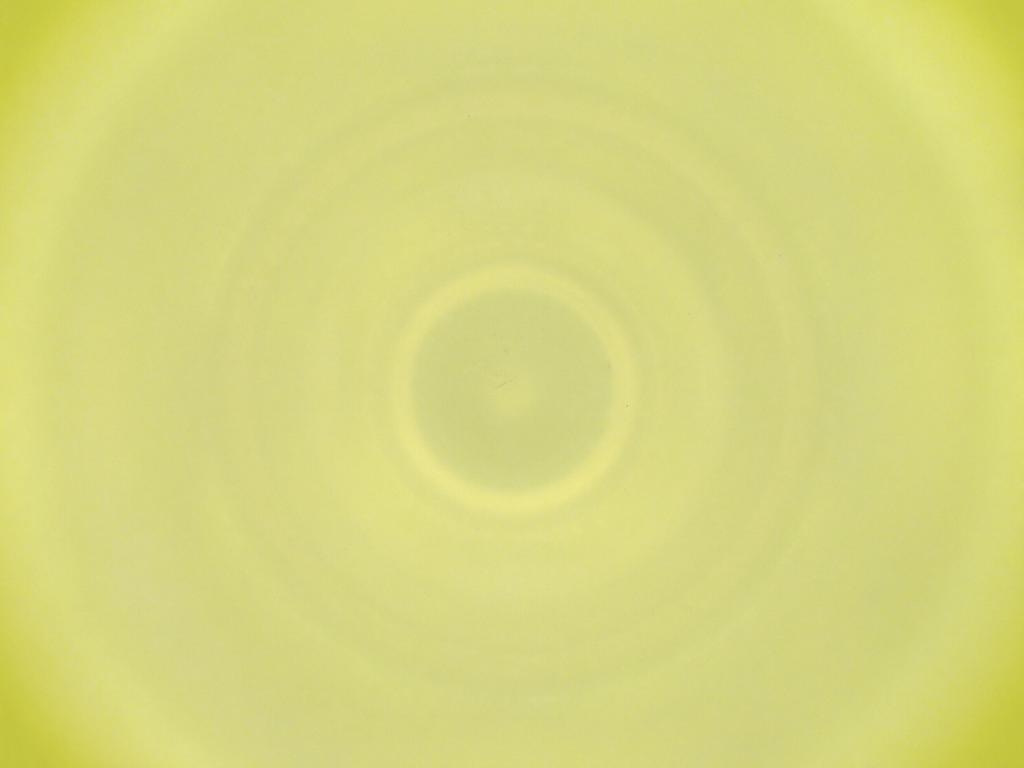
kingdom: Animalia
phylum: Arthropoda
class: Insecta
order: Diptera
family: Cecidomyiidae
